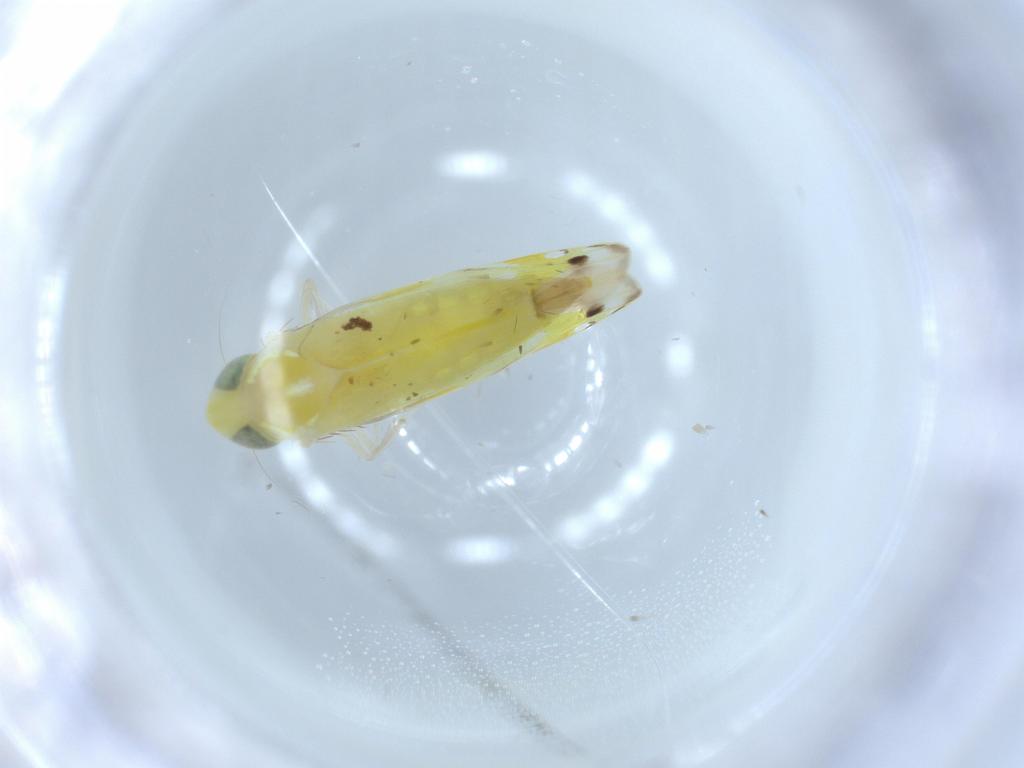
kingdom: Animalia
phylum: Arthropoda
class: Insecta
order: Hemiptera
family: Cicadellidae
